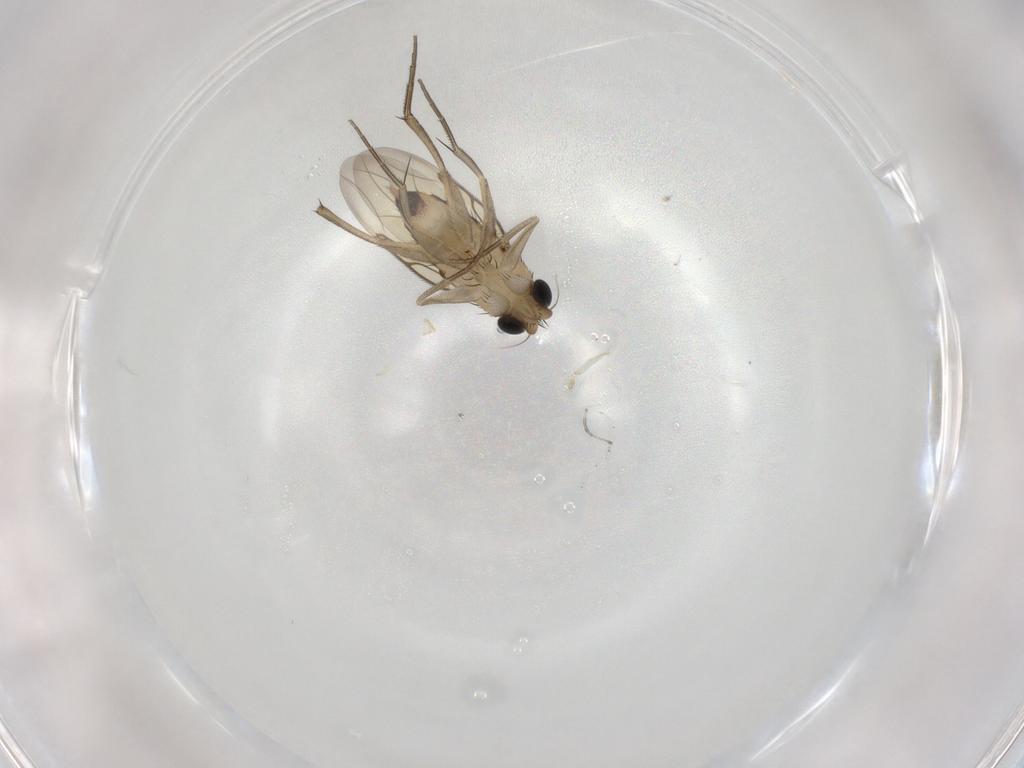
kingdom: Animalia
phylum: Arthropoda
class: Insecta
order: Diptera
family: Phoridae
